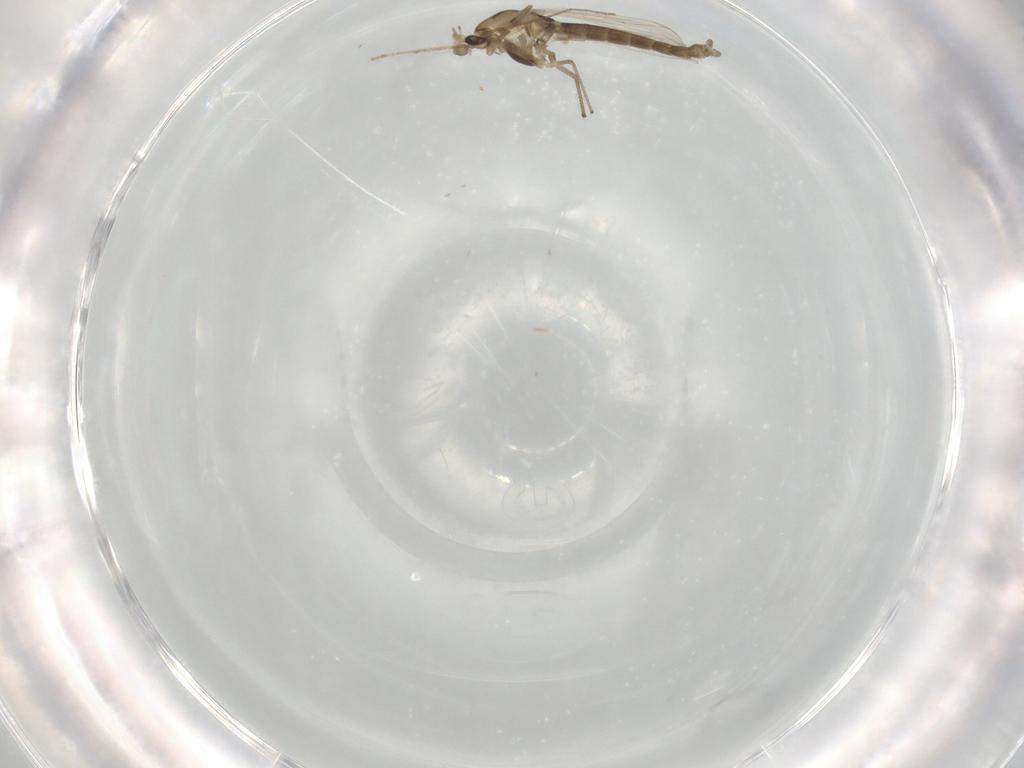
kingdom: Animalia
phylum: Arthropoda
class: Insecta
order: Diptera
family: Chironomidae
